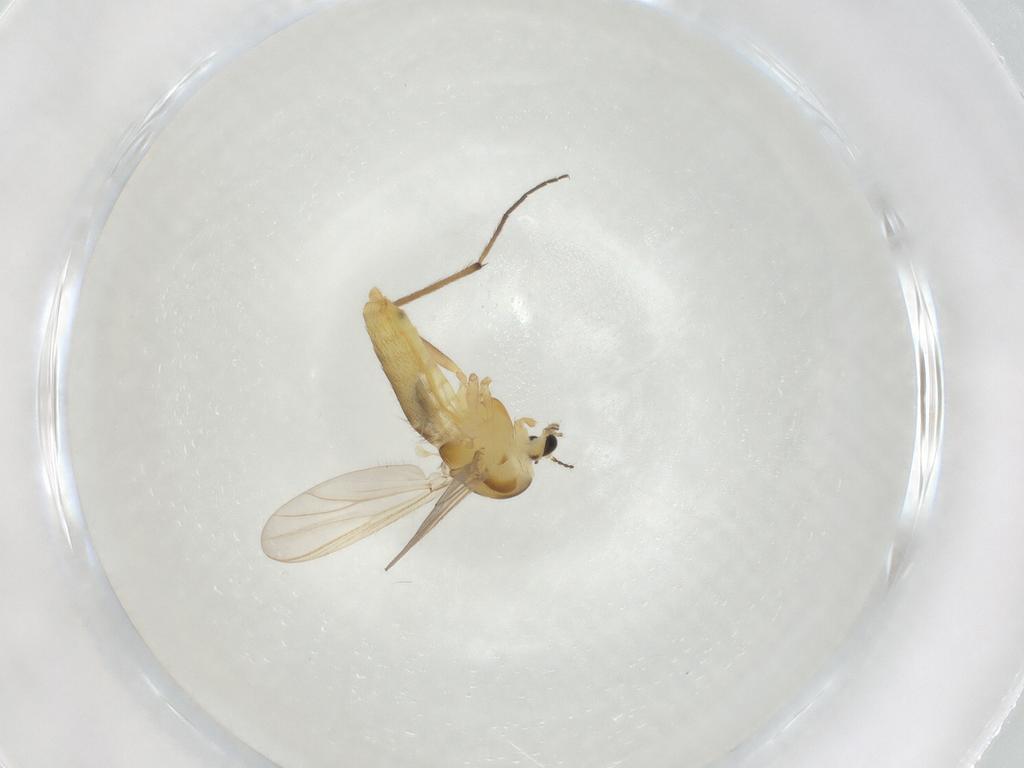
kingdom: Animalia
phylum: Arthropoda
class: Insecta
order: Diptera
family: Chironomidae
